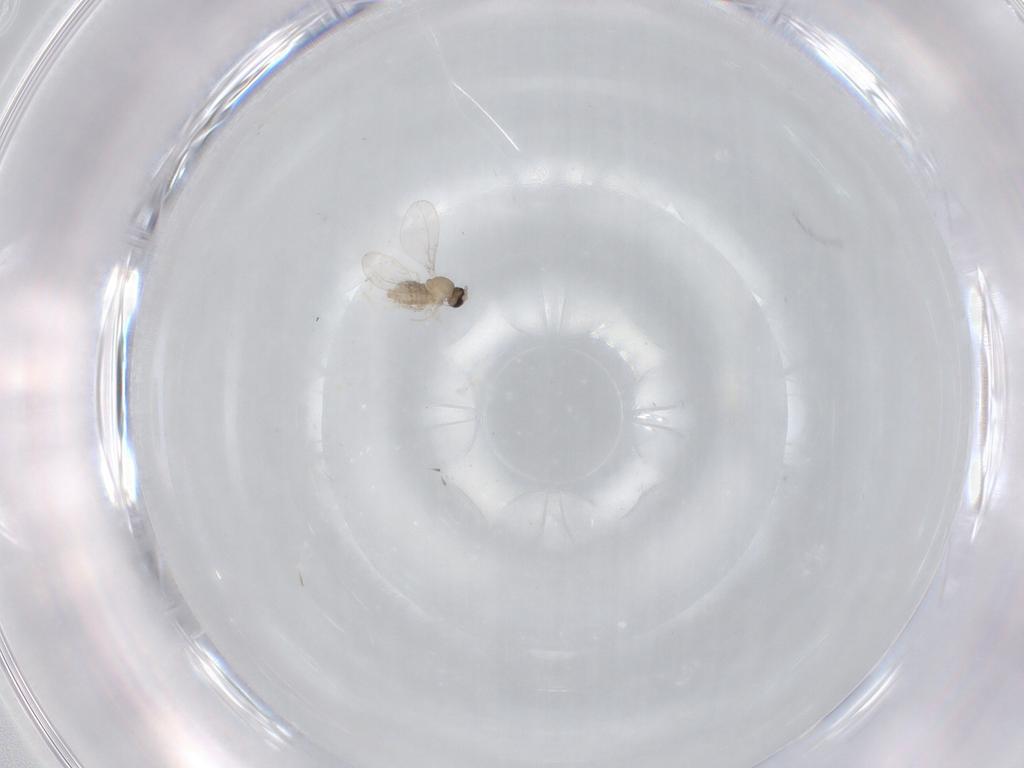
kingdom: Animalia
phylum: Arthropoda
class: Insecta
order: Diptera
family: Cecidomyiidae
